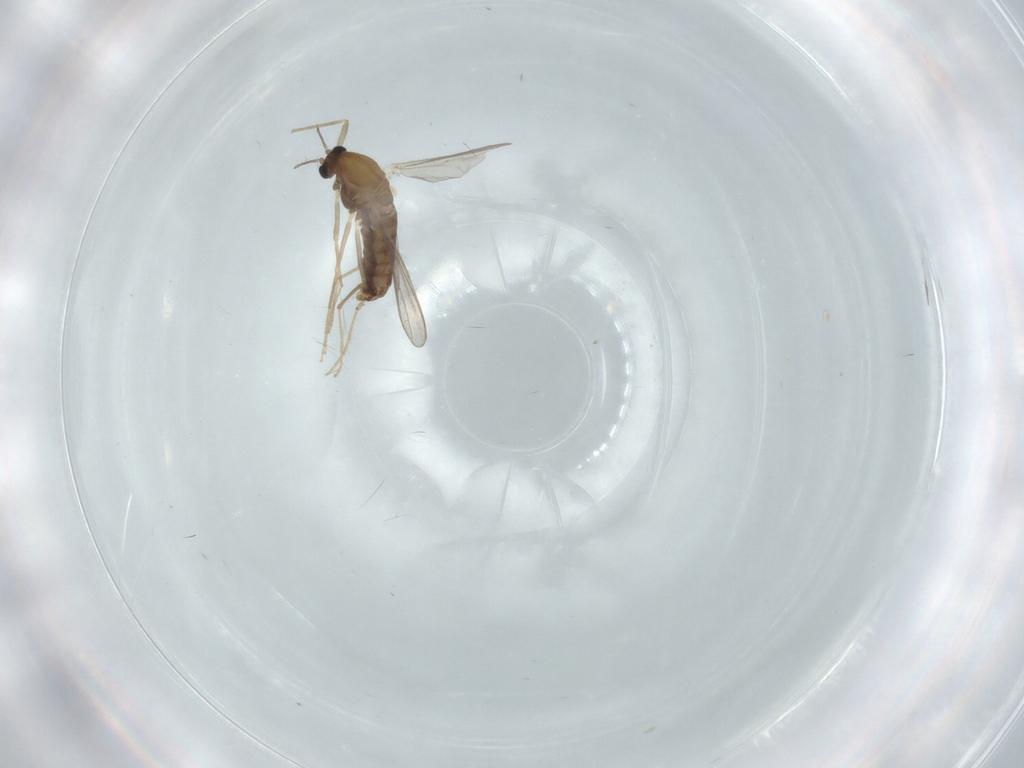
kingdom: Animalia
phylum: Arthropoda
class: Insecta
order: Diptera
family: Chironomidae
